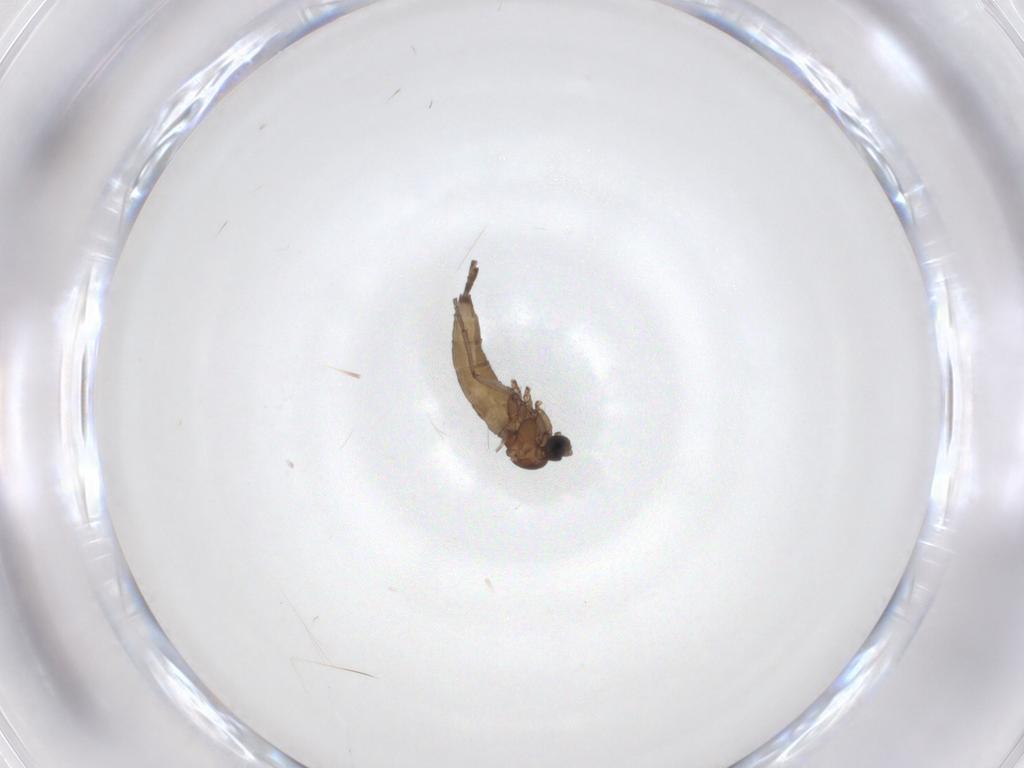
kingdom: Animalia
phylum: Arthropoda
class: Insecta
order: Diptera
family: Sciaridae
